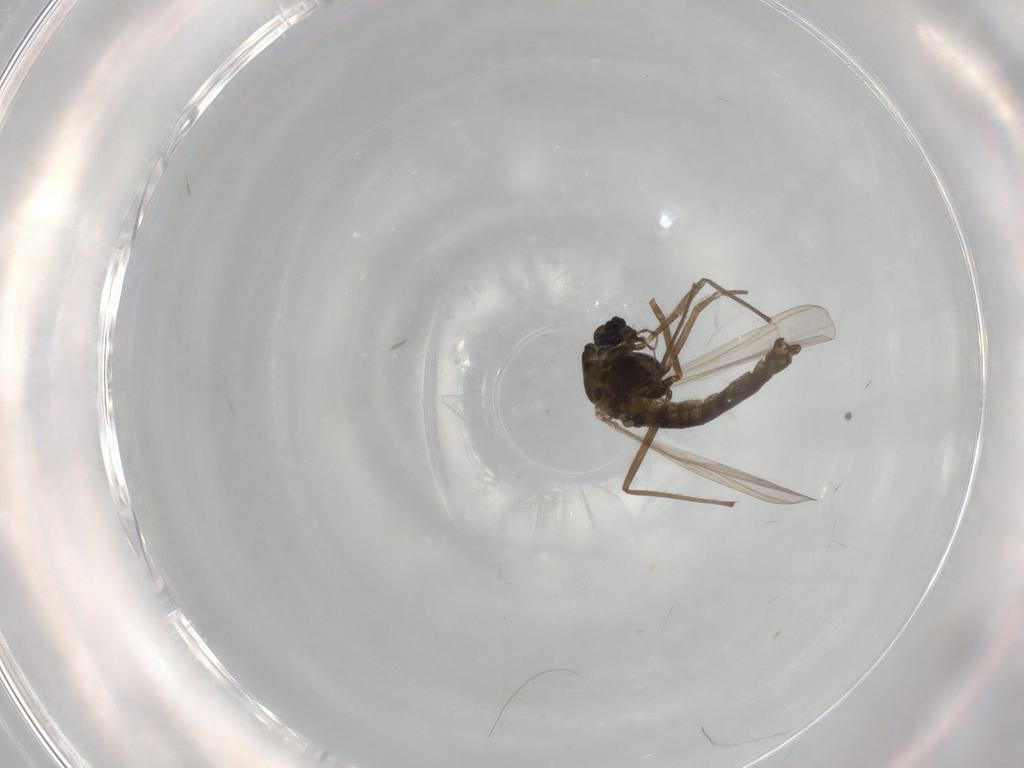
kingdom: Animalia
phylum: Arthropoda
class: Insecta
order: Diptera
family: Chironomidae
